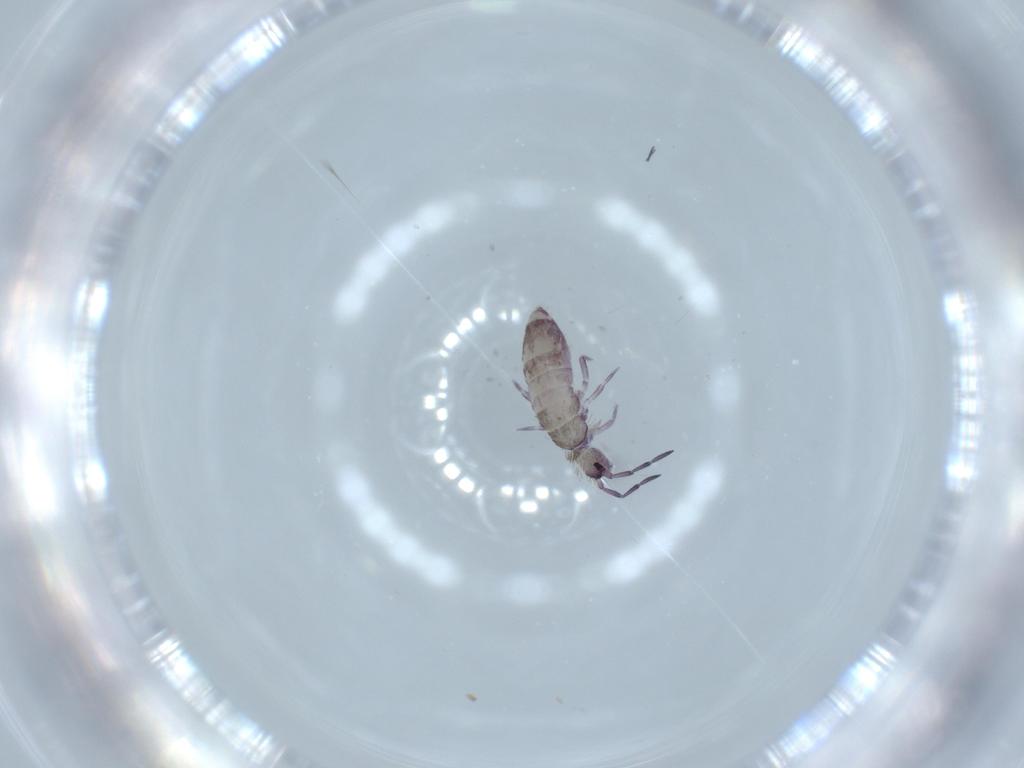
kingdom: Animalia
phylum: Arthropoda
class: Collembola
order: Entomobryomorpha
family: Entomobryidae
